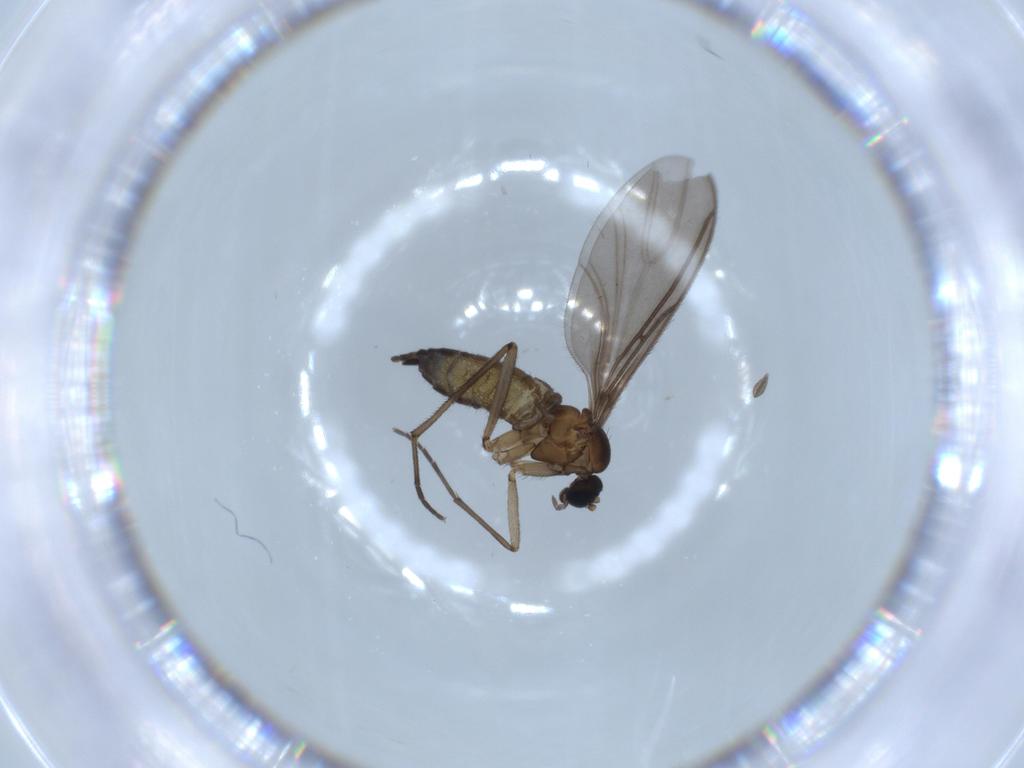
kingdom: Animalia
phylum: Arthropoda
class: Insecta
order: Diptera
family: Sciaridae
